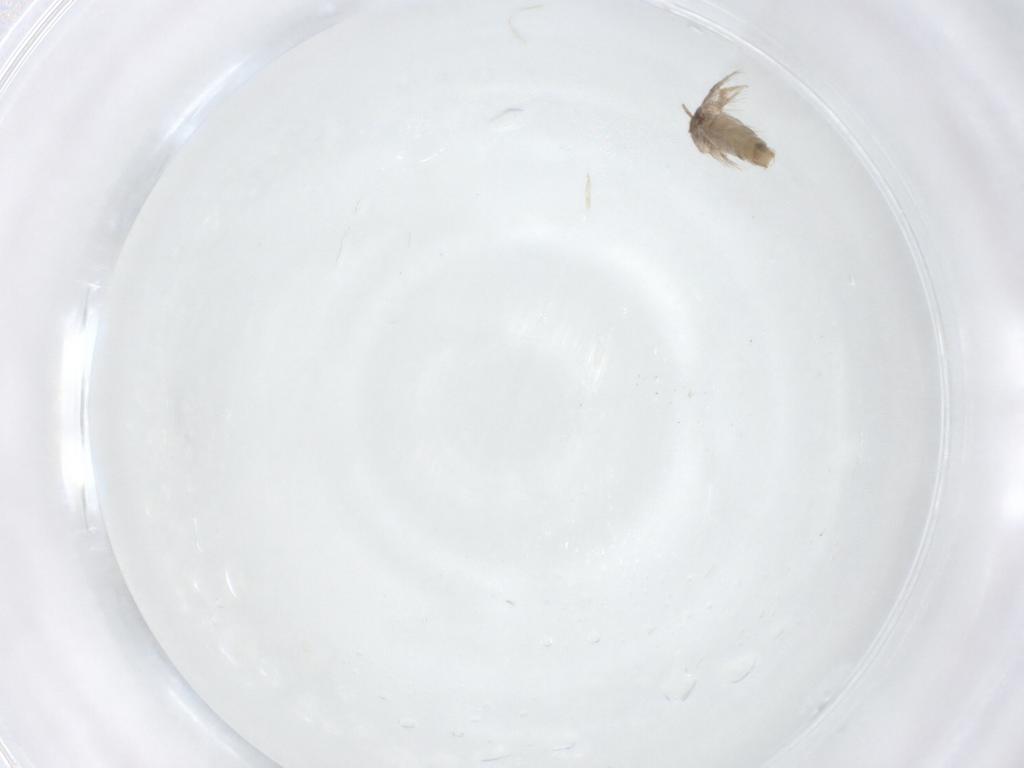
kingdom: Animalia
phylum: Arthropoda
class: Insecta
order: Lepidoptera
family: Nepticulidae
